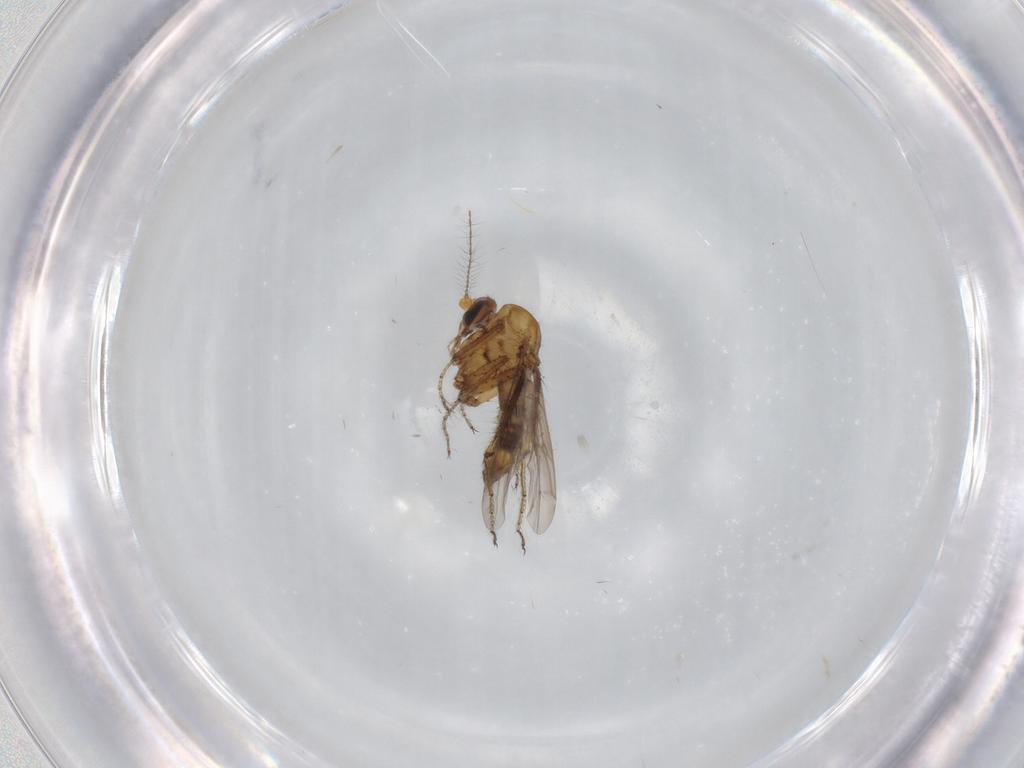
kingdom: Animalia
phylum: Arthropoda
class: Insecta
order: Diptera
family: Ceratopogonidae
